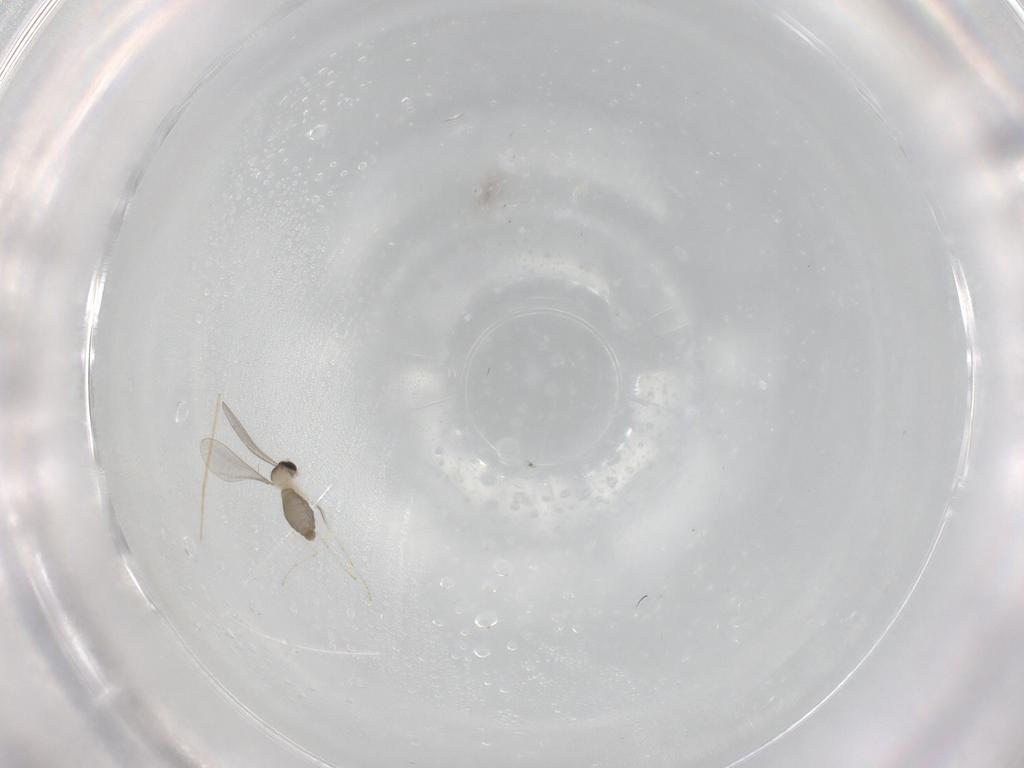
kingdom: Animalia
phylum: Arthropoda
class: Insecta
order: Diptera
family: Cecidomyiidae
